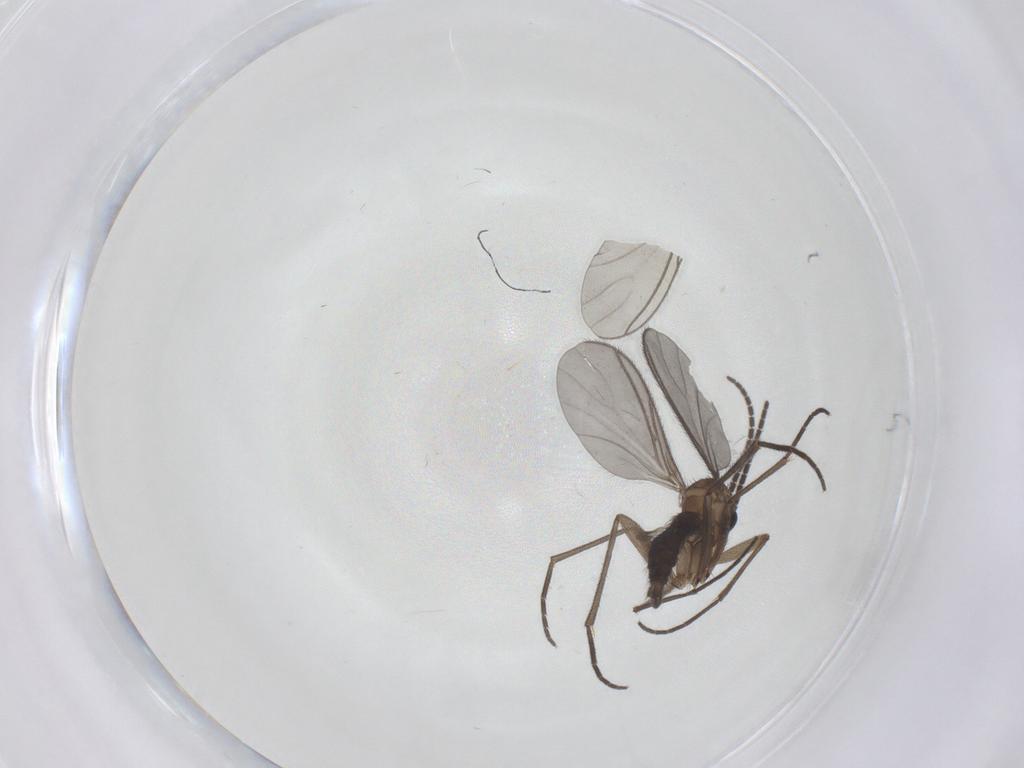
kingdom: Animalia
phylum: Arthropoda
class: Insecta
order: Diptera
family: Sciaridae
